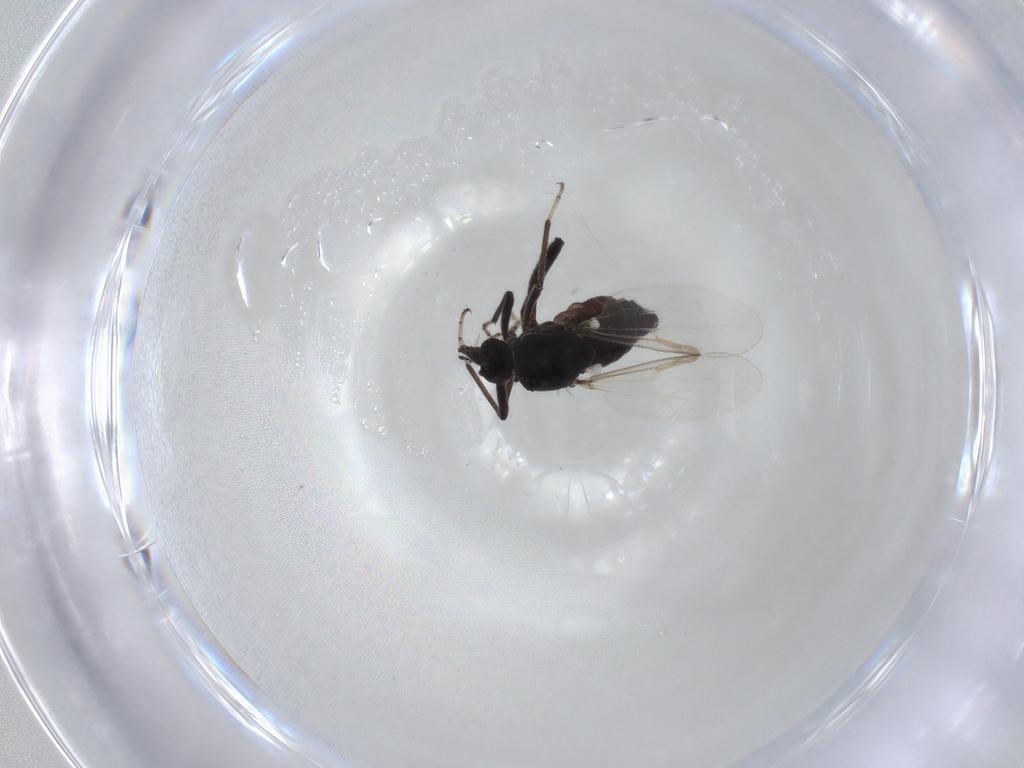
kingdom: Animalia
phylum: Arthropoda
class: Insecta
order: Diptera
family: Ceratopogonidae
